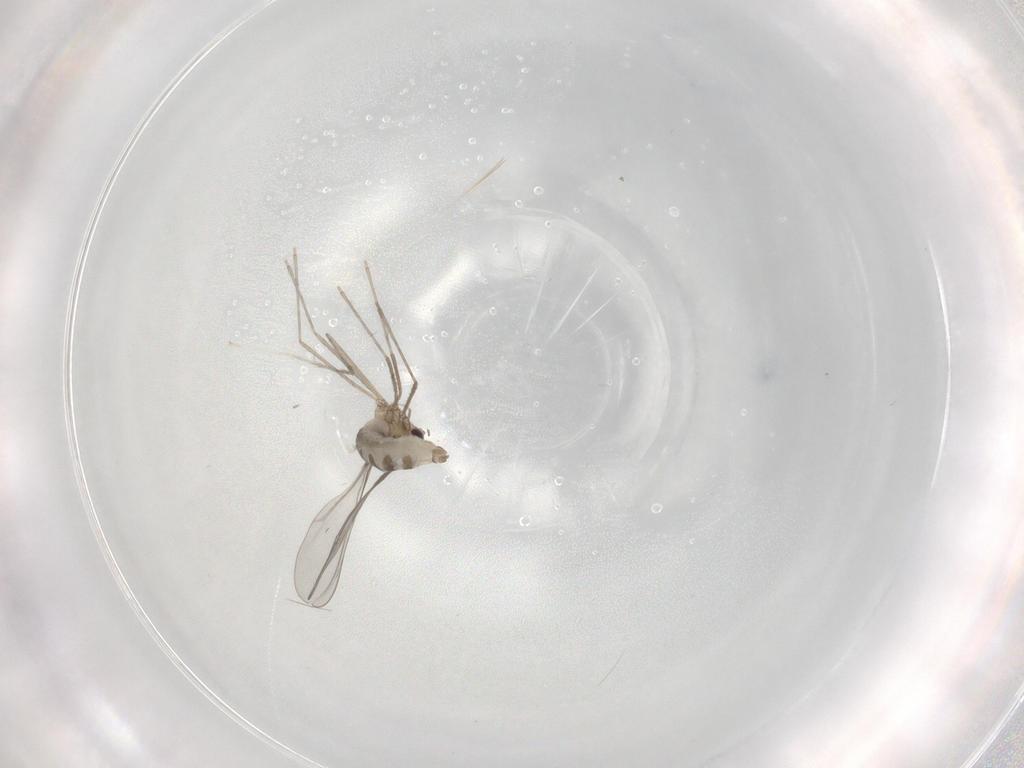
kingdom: Animalia
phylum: Arthropoda
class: Insecta
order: Diptera
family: Cecidomyiidae
